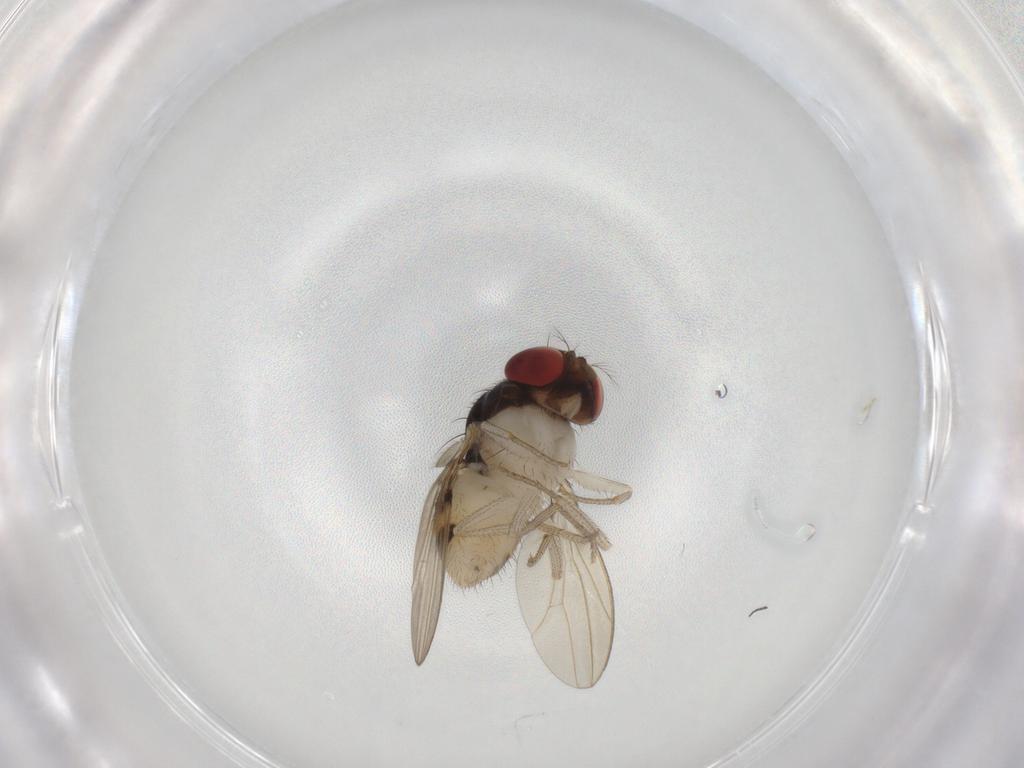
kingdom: Animalia
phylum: Arthropoda
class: Insecta
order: Diptera
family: Drosophilidae
